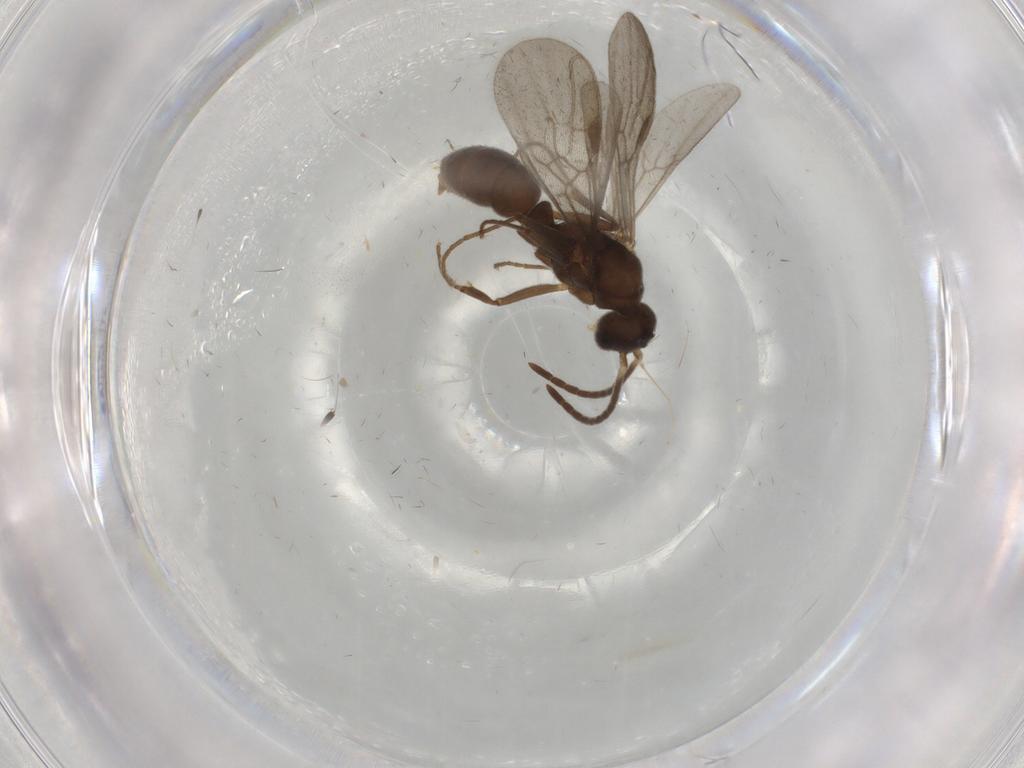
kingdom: Animalia
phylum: Arthropoda
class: Insecta
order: Hymenoptera
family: Formicidae
